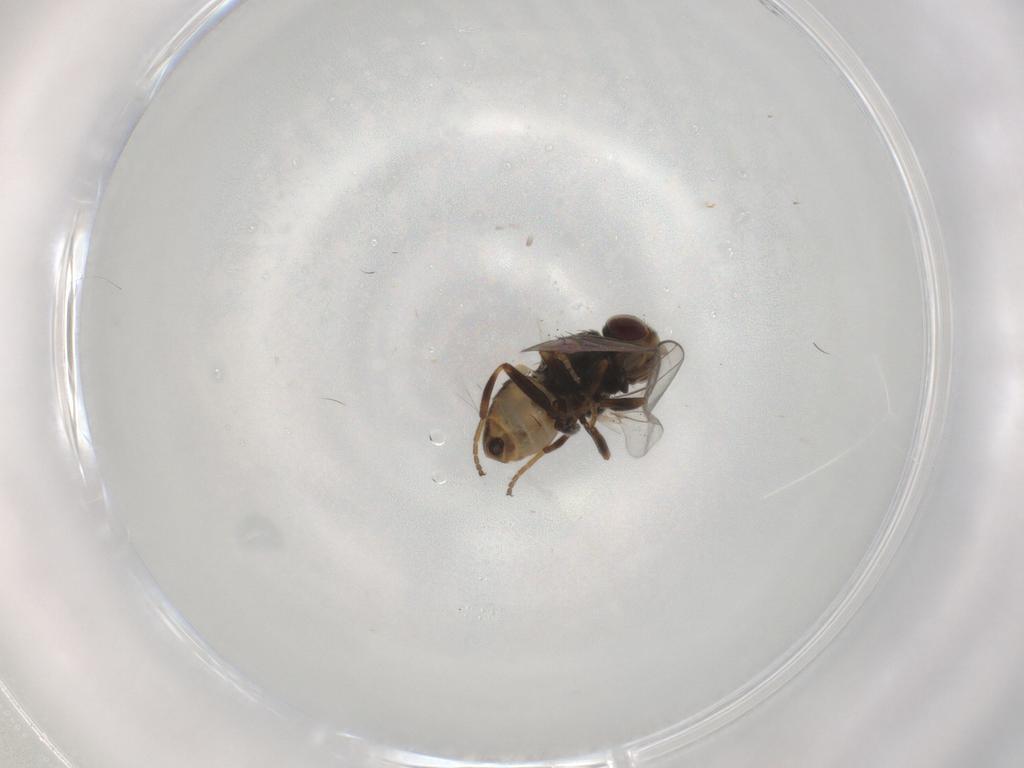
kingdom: Animalia
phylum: Arthropoda
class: Insecta
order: Diptera
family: Chloropidae
